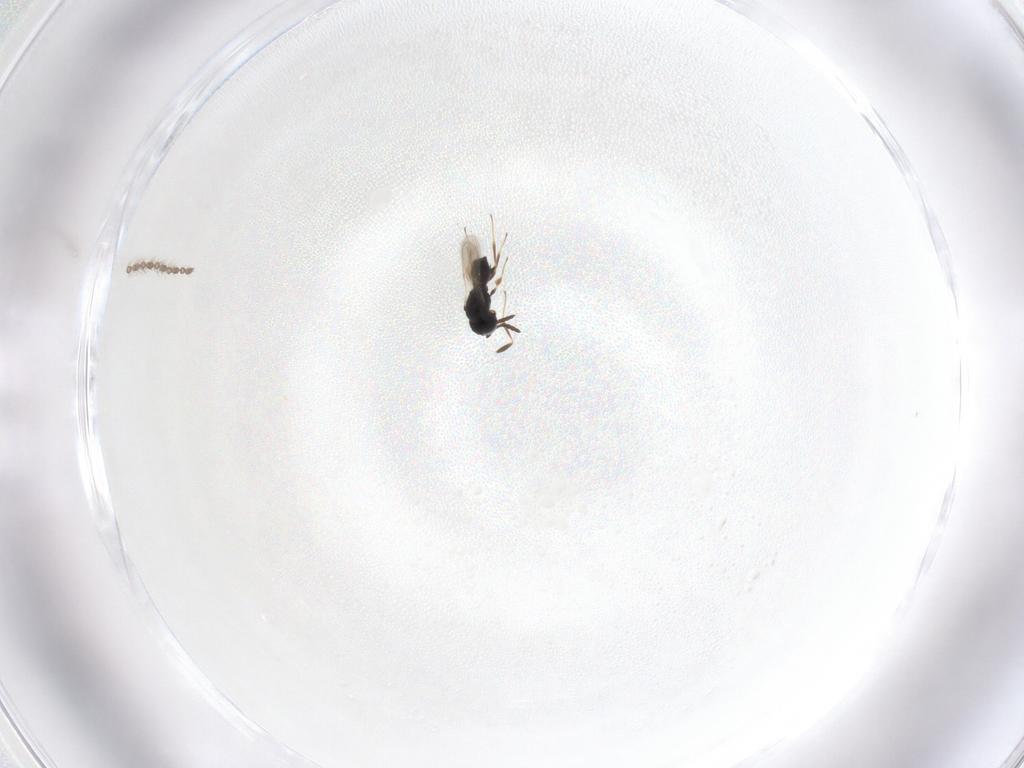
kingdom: Animalia
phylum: Arthropoda
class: Insecta
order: Hymenoptera
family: Scelionidae
